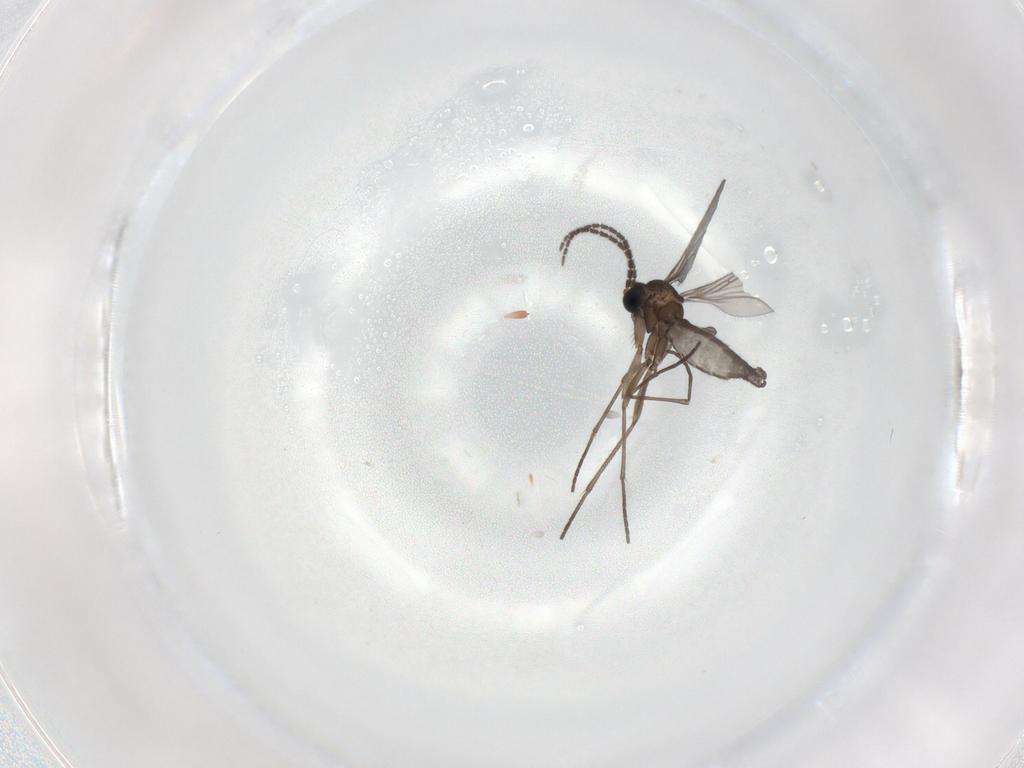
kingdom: Animalia
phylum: Arthropoda
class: Insecta
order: Diptera
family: Sciaridae
